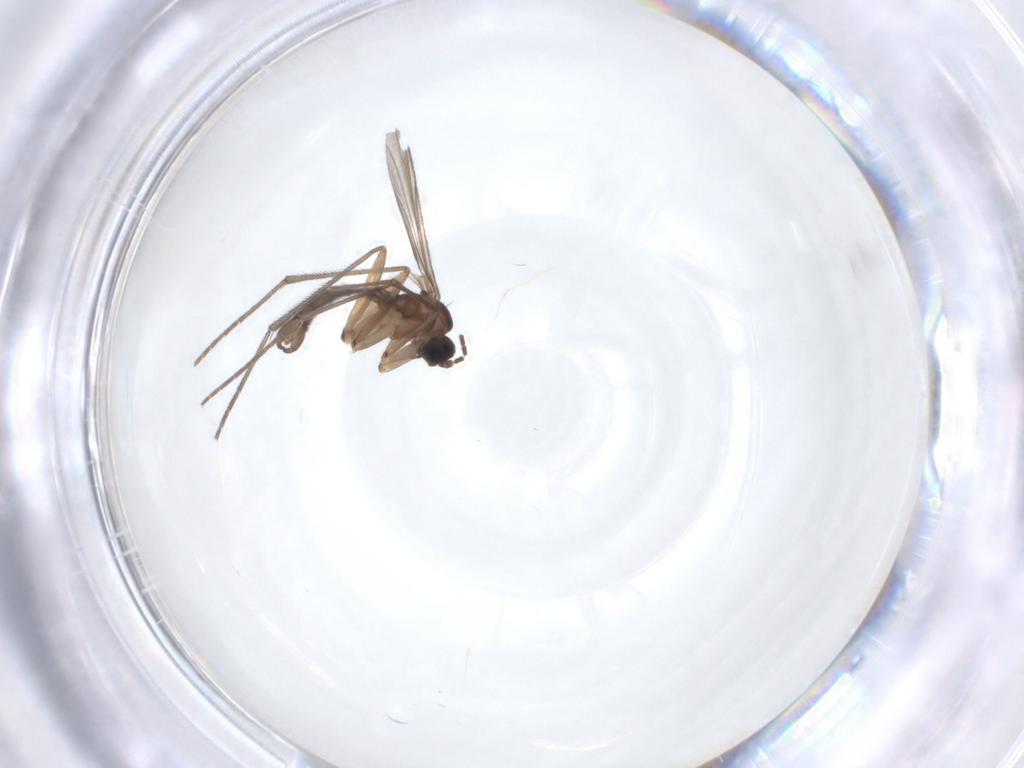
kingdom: Animalia
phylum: Arthropoda
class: Insecta
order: Diptera
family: Sciaridae
